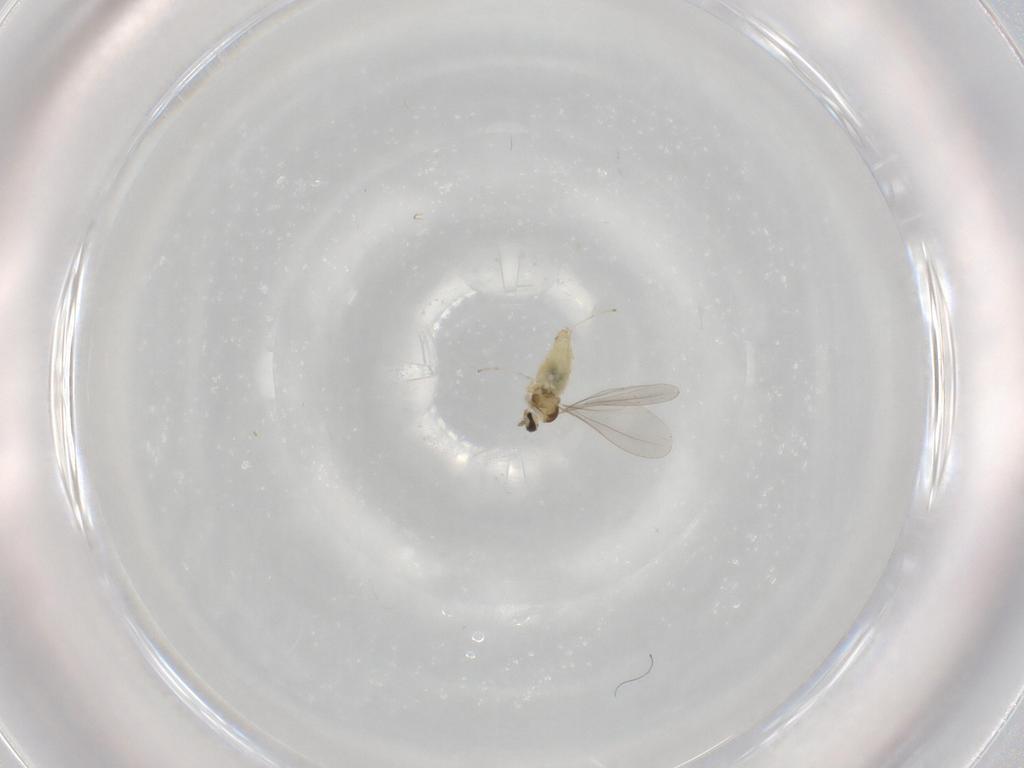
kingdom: Animalia
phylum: Arthropoda
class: Insecta
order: Diptera
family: Cecidomyiidae
